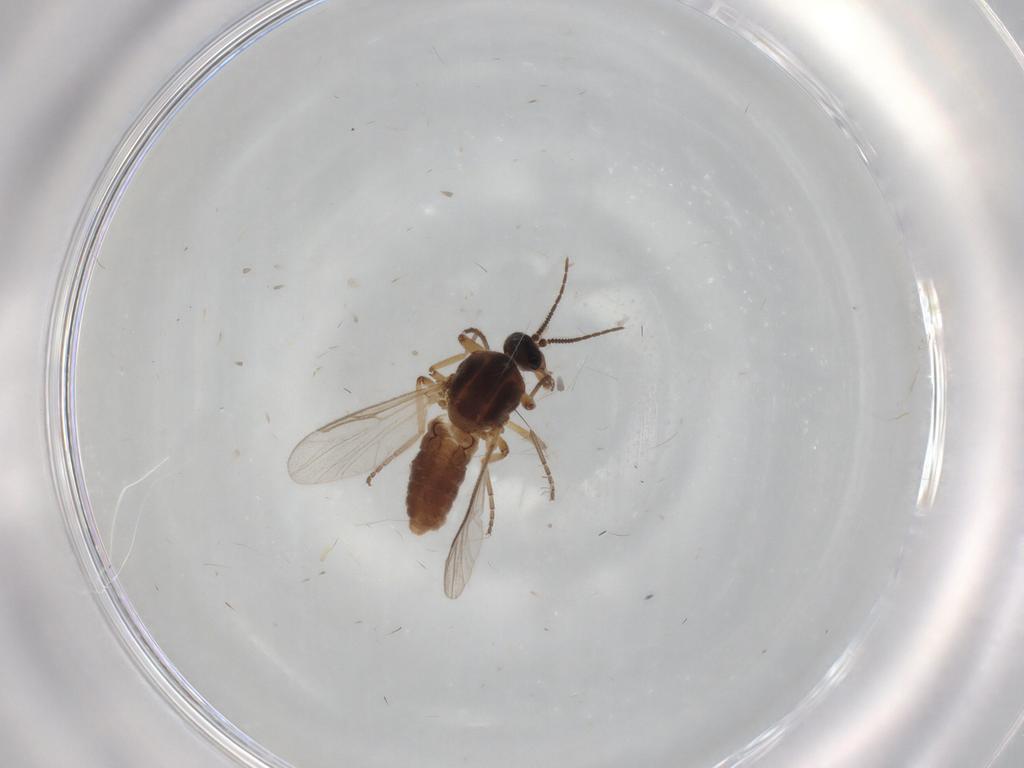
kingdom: Animalia
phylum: Arthropoda
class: Insecta
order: Diptera
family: Ceratopogonidae
